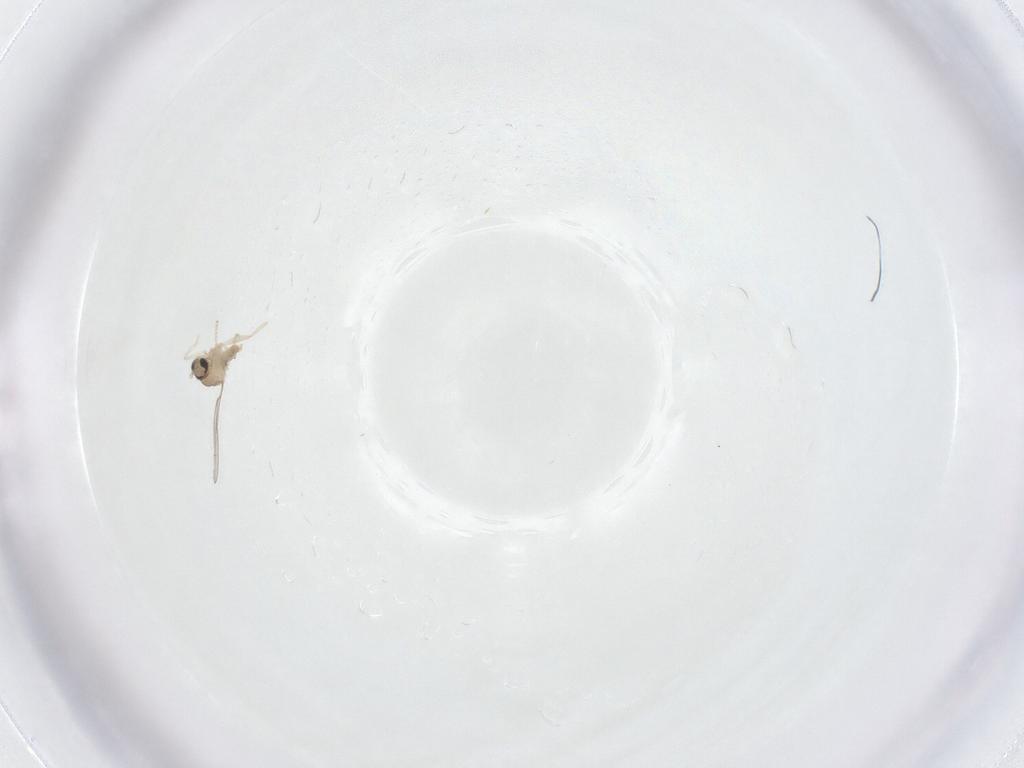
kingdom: Animalia
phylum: Arthropoda
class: Insecta
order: Diptera
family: Cecidomyiidae
